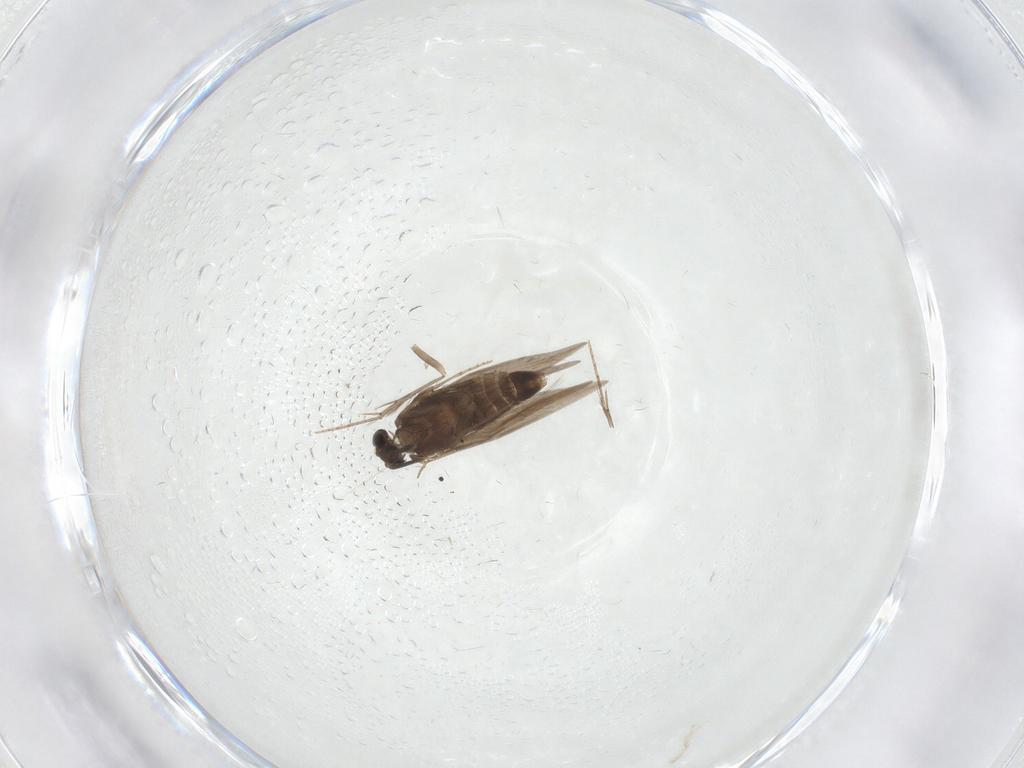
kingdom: Animalia
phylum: Arthropoda
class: Insecta
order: Trichoptera
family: Hydroptilidae
